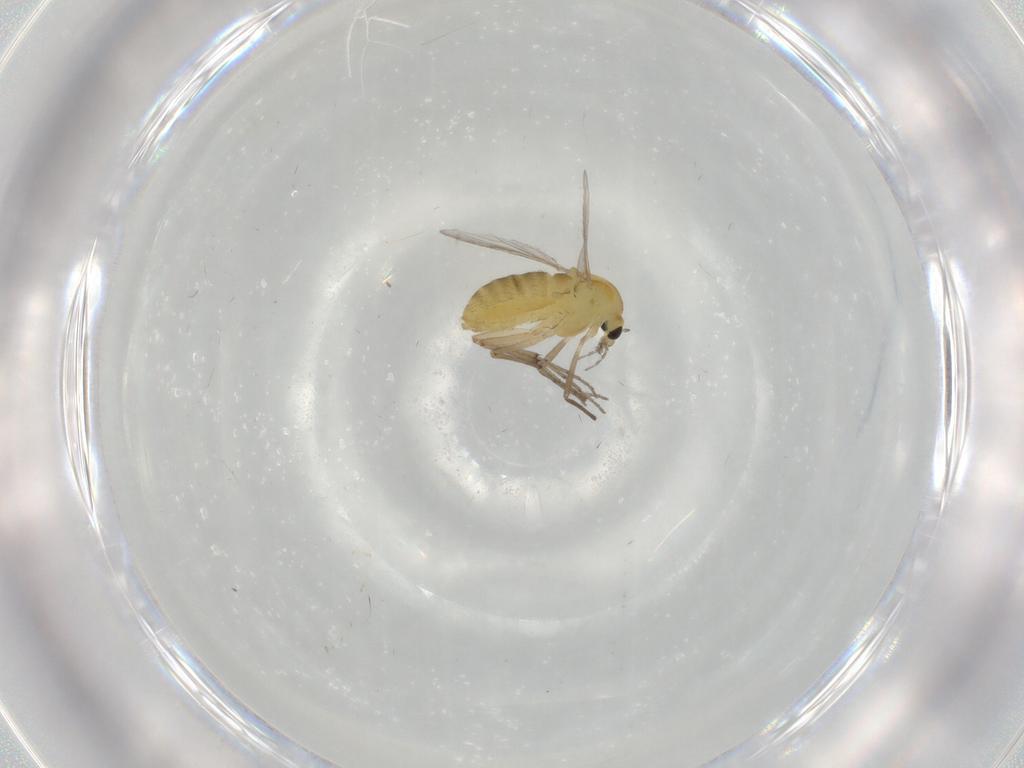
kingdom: Animalia
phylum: Arthropoda
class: Insecta
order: Diptera
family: Chironomidae
